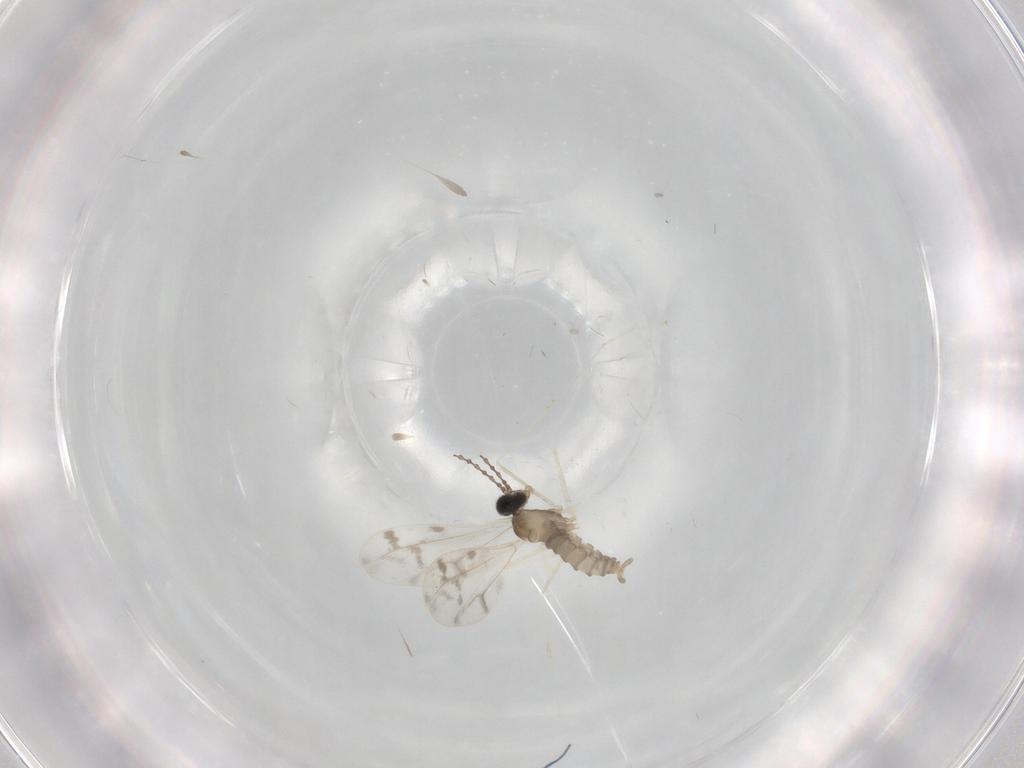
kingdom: Animalia
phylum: Arthropoda
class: Insecta
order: Diptera
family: Cecidomyiidae
